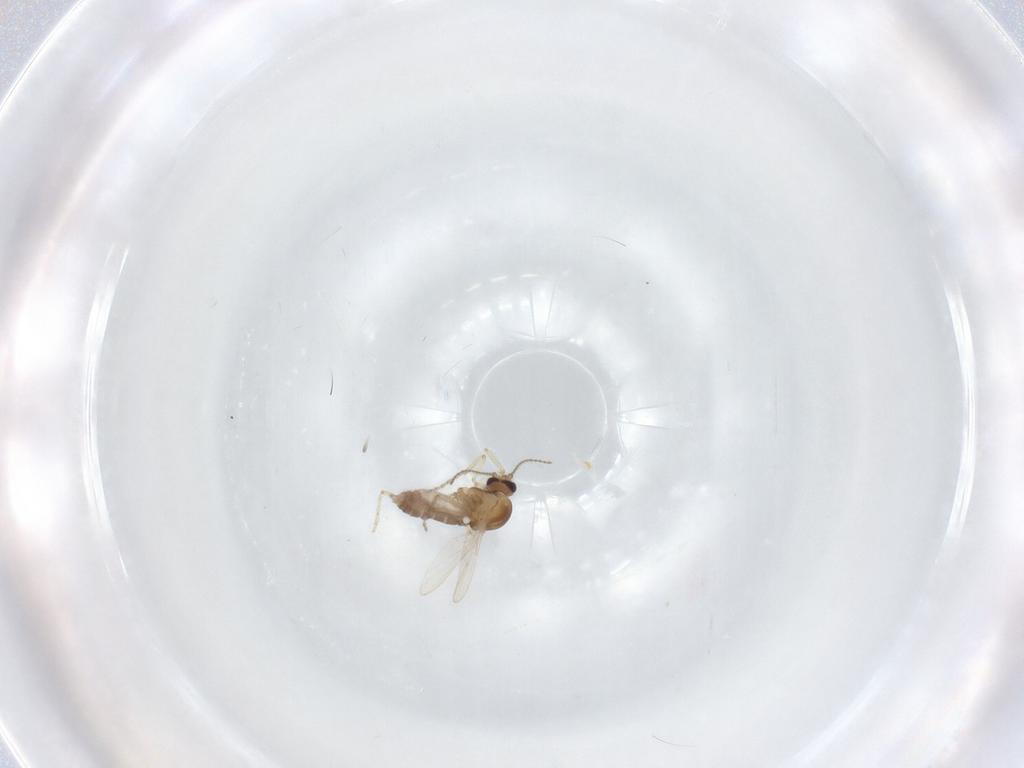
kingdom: Animalia
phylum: Arthropoda
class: Insecta
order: Diptera
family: Ceratopogonidae
